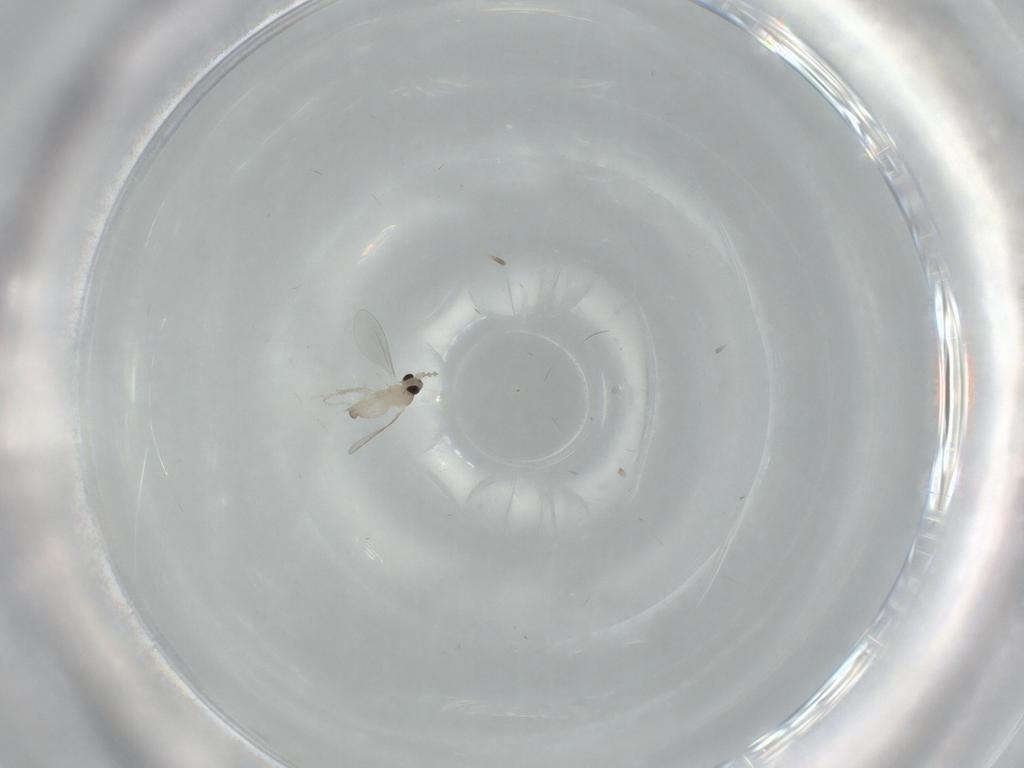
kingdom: Animalia
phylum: Arthropoda
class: Insecta
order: Diptera
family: Cecidomyiidae
